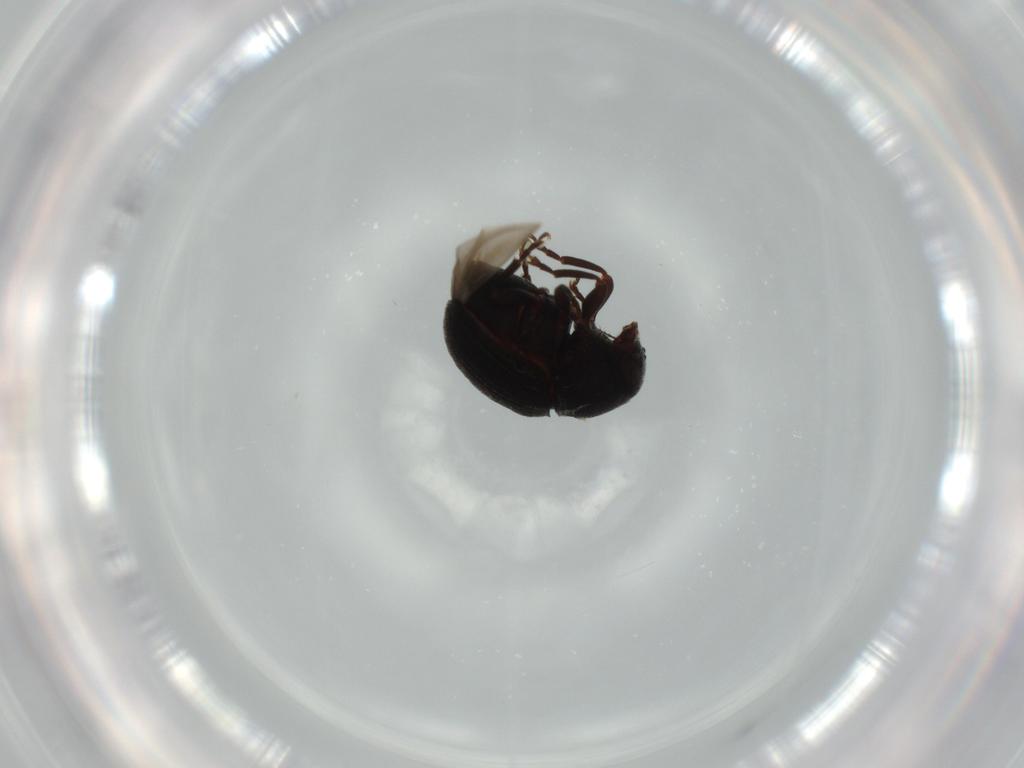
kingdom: Animalia
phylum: Arthropoda
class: Insecta
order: Coleoptera
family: Anthribidae
